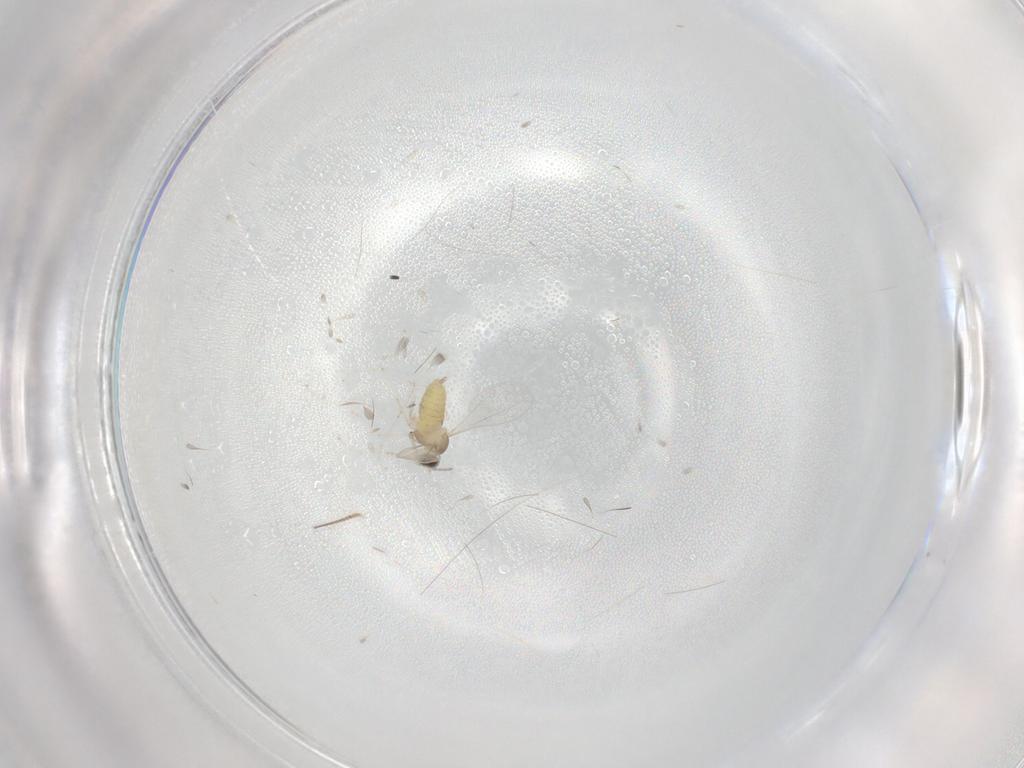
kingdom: Animalia
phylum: Arthropoda
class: Insecta
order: Diptera
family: Cecidomyiidae
